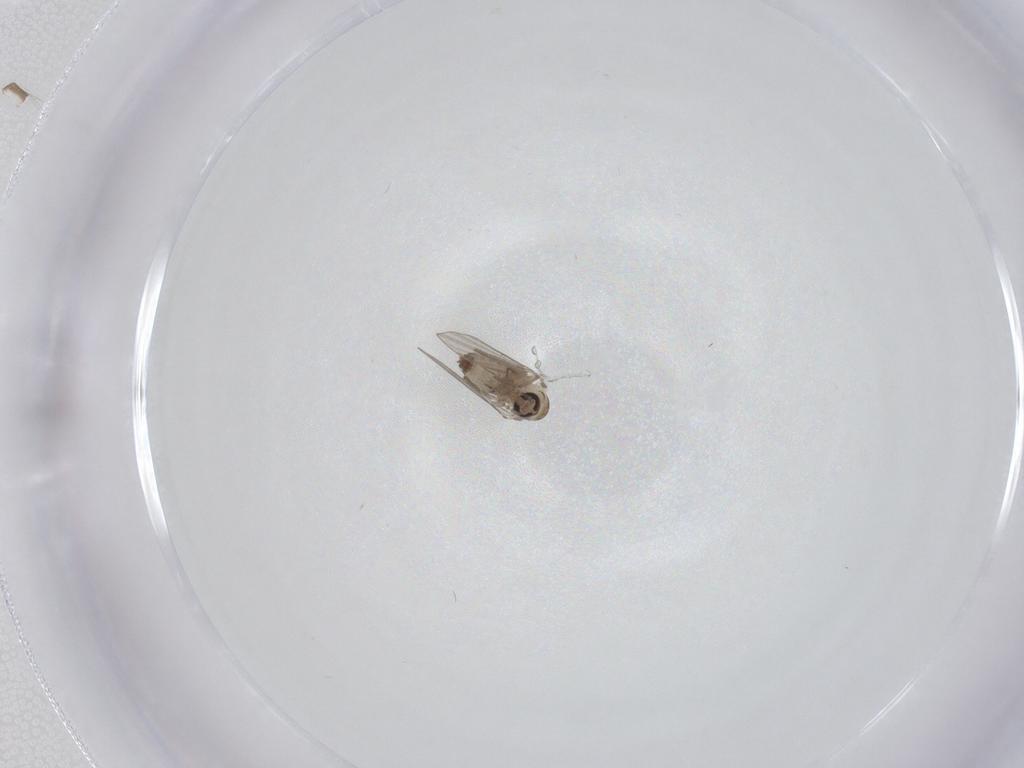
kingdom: Animalia
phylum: Arthropoda
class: Insecta
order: Diptera
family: Psychodidae
